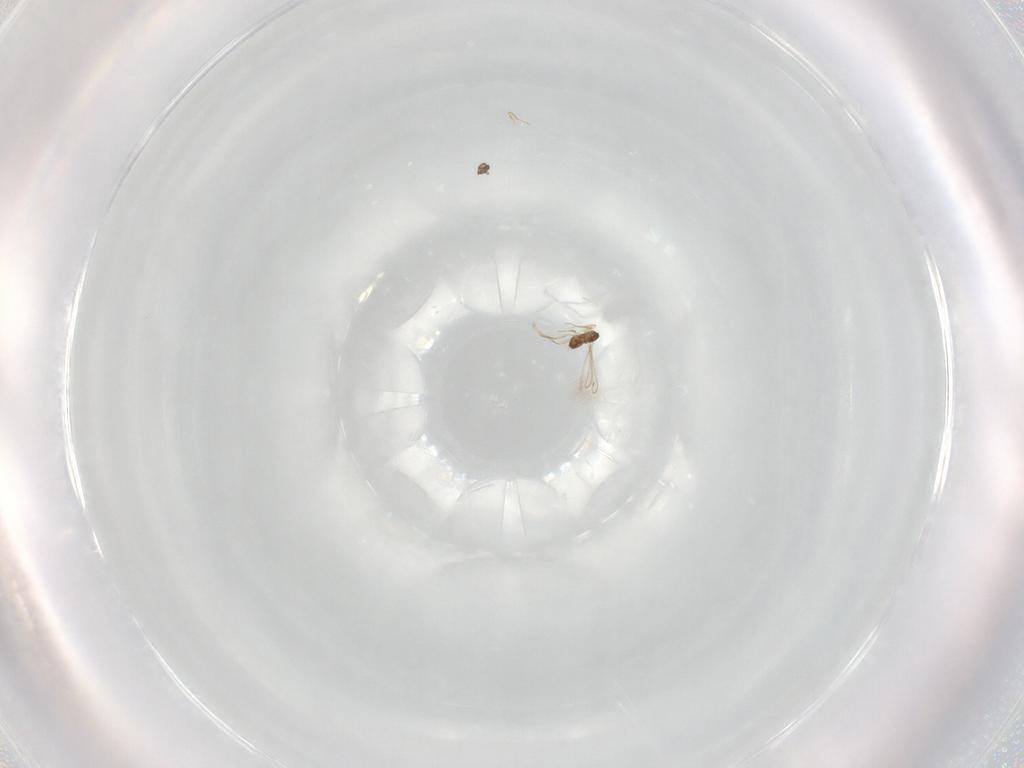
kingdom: Animalia
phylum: Arthropoda
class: Insecta
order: Hymenoptera
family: Mymaridae
